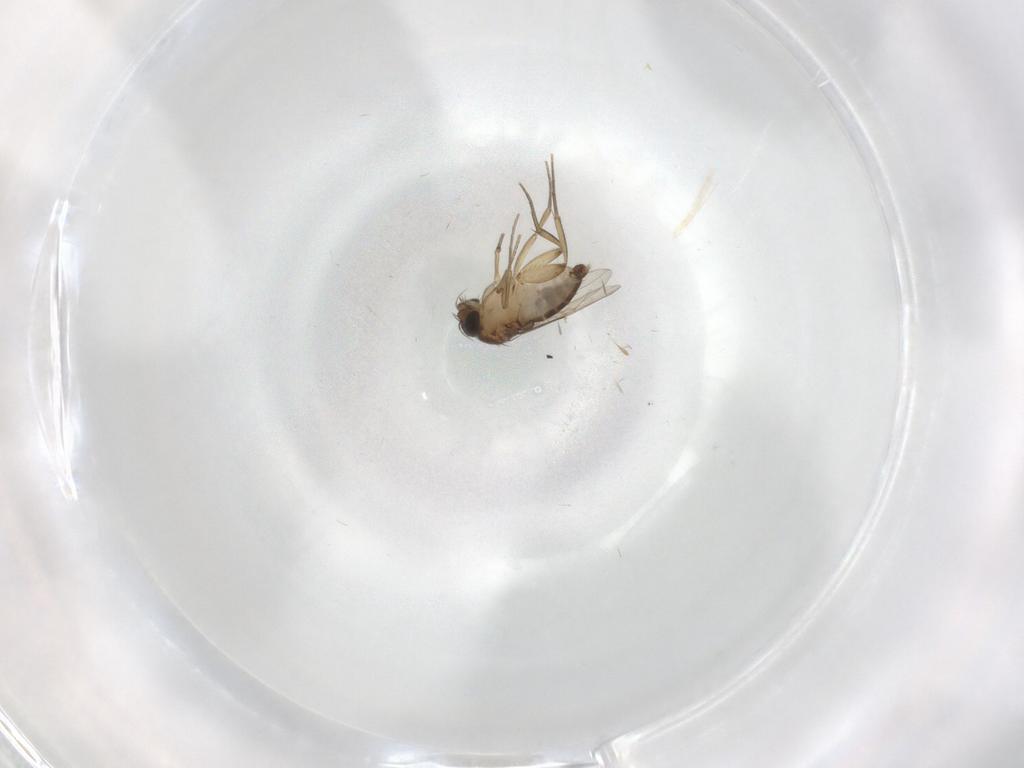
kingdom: Animalia
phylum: Arthropoda
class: Insecta
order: Diptera
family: Phoridae
